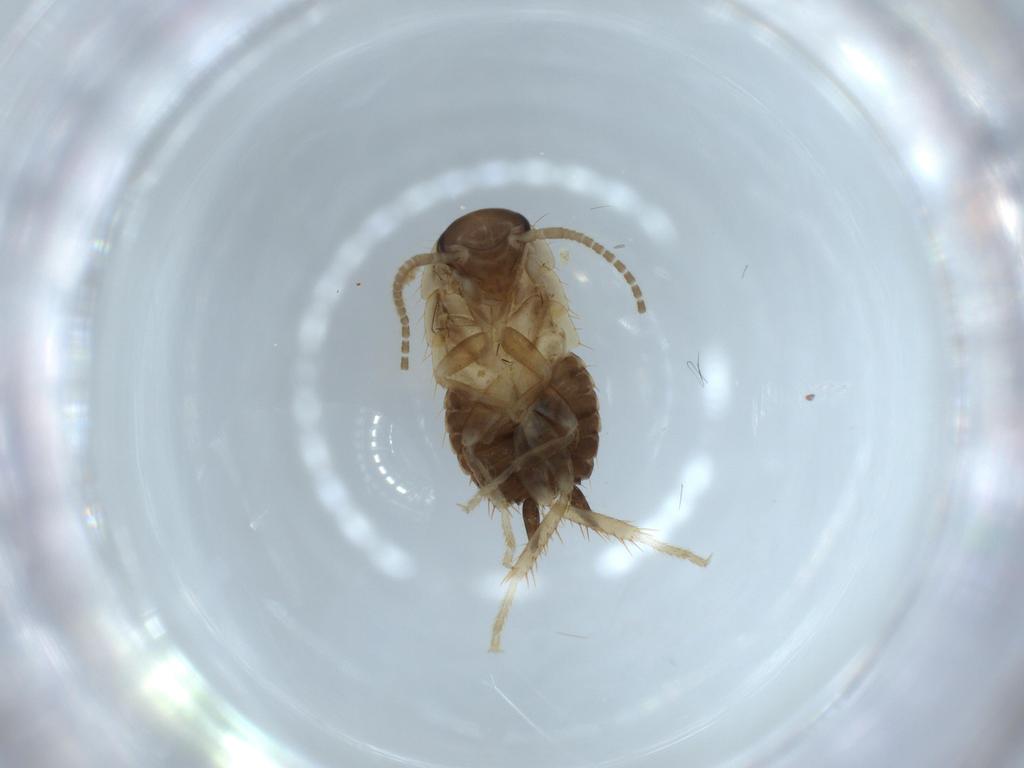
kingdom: Animalia
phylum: Arthropoda
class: Insecta
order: Blattodea
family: Ectobiidae
